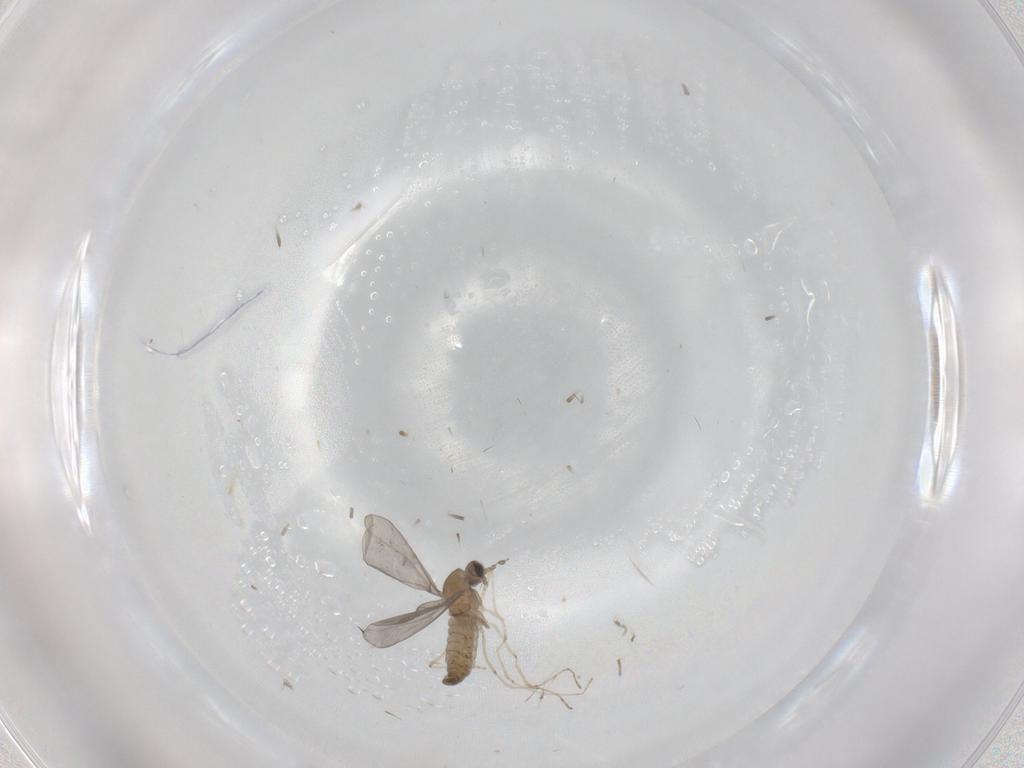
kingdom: Animalia
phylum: Arthropoda
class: Insecta
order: Diptera
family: Cecidomyiidae
